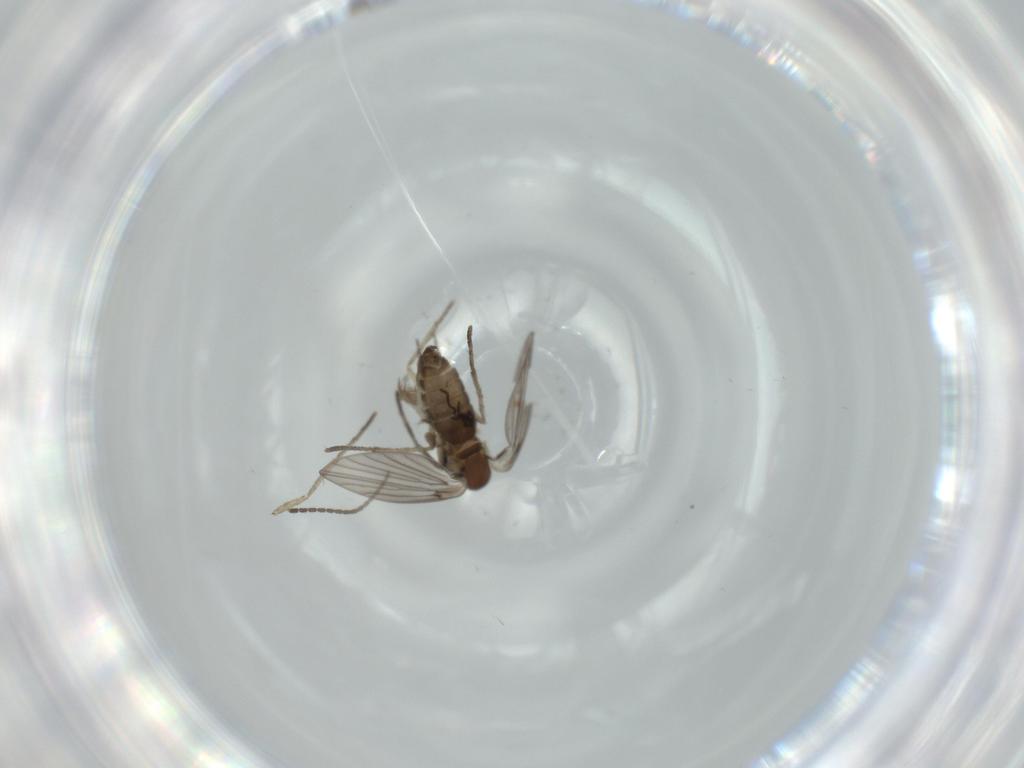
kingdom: Animalia
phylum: Arthropoda
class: Insecta
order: Diptera
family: Psychodidae
